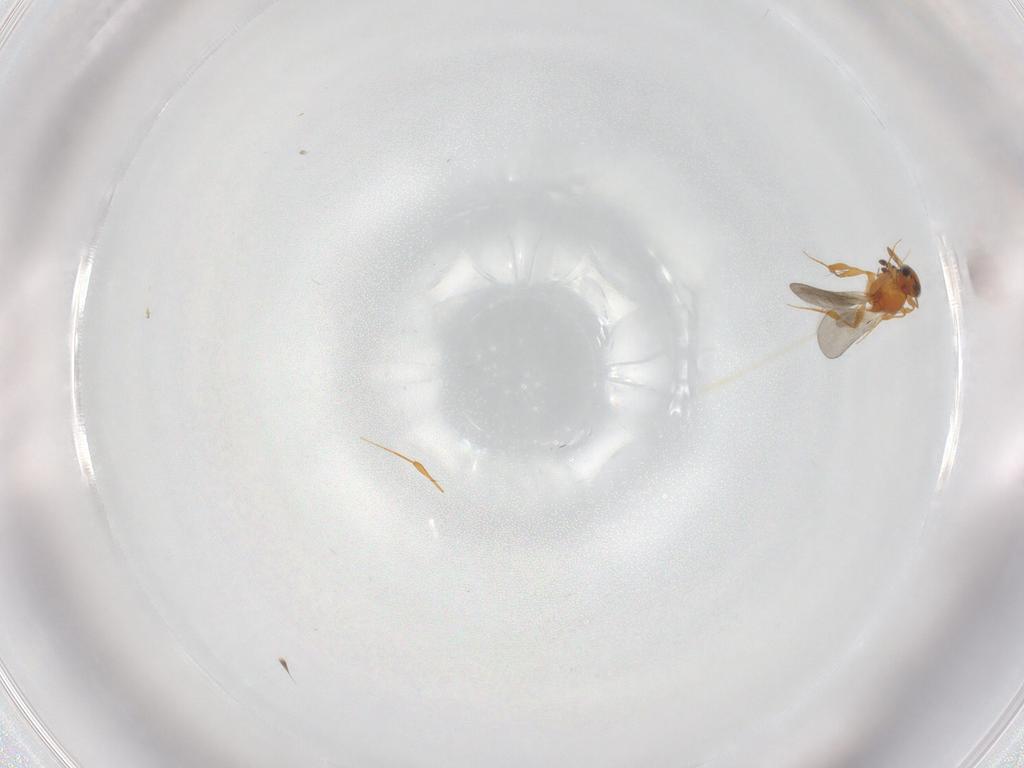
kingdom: Animalia
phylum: Arthropoda
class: Insecta
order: Hymenoptera
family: Platygastridae
